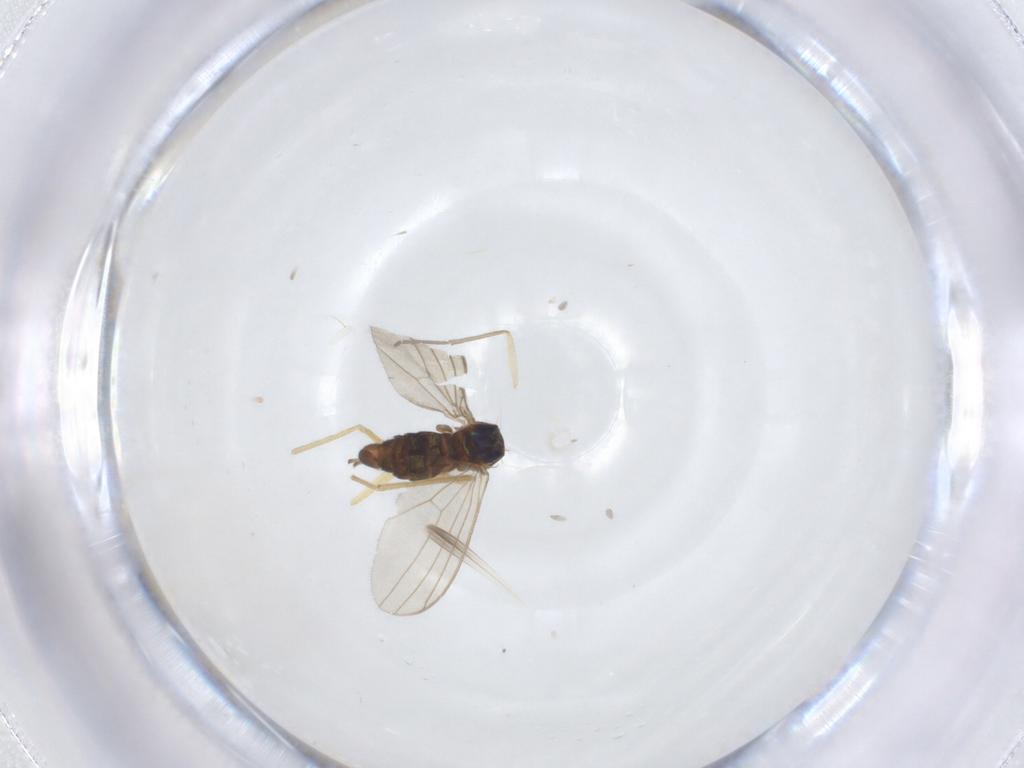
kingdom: Animalia
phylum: Arthropoda
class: Insecta
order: Diptera
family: Dolichopodidae
